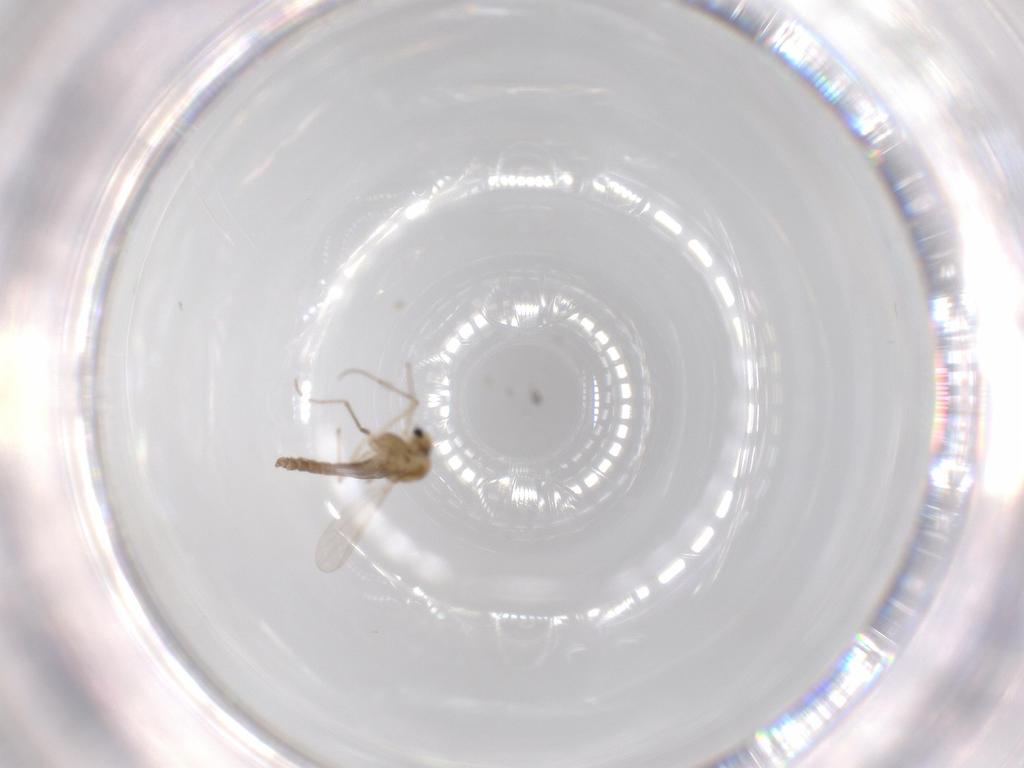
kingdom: Animalia
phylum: Arthropoda
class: Insecta
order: Diptera
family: Chironomidae
